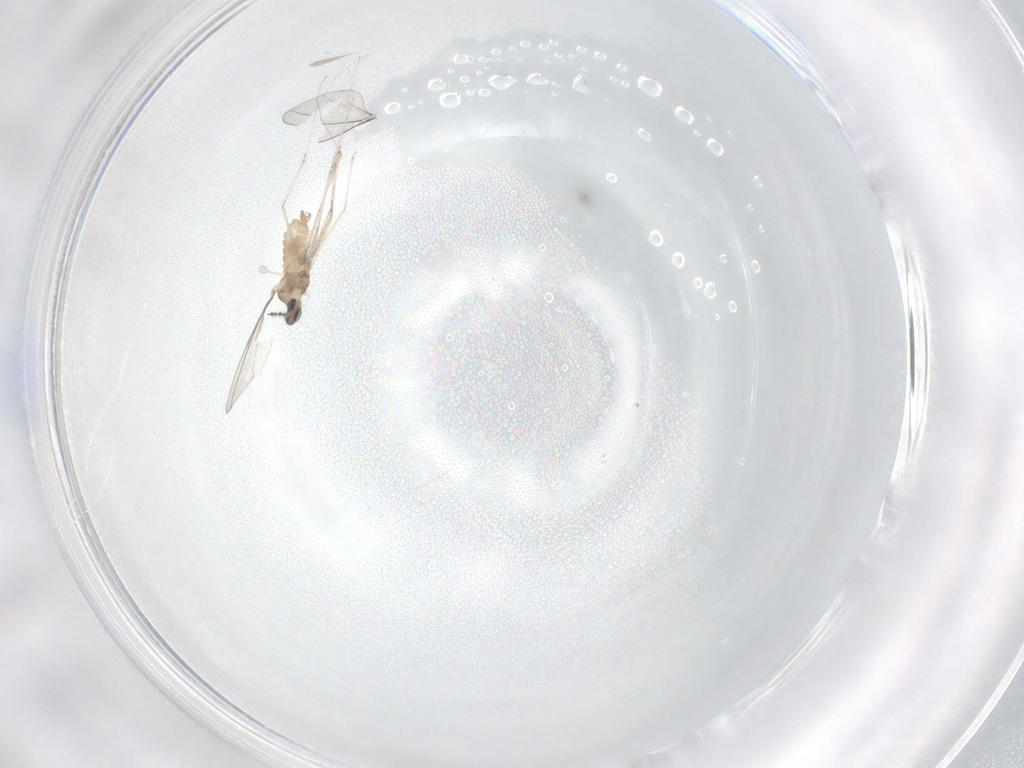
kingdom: Animalia
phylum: Arthropoda
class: Insecta
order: Diptera
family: Cecidomyiidae
